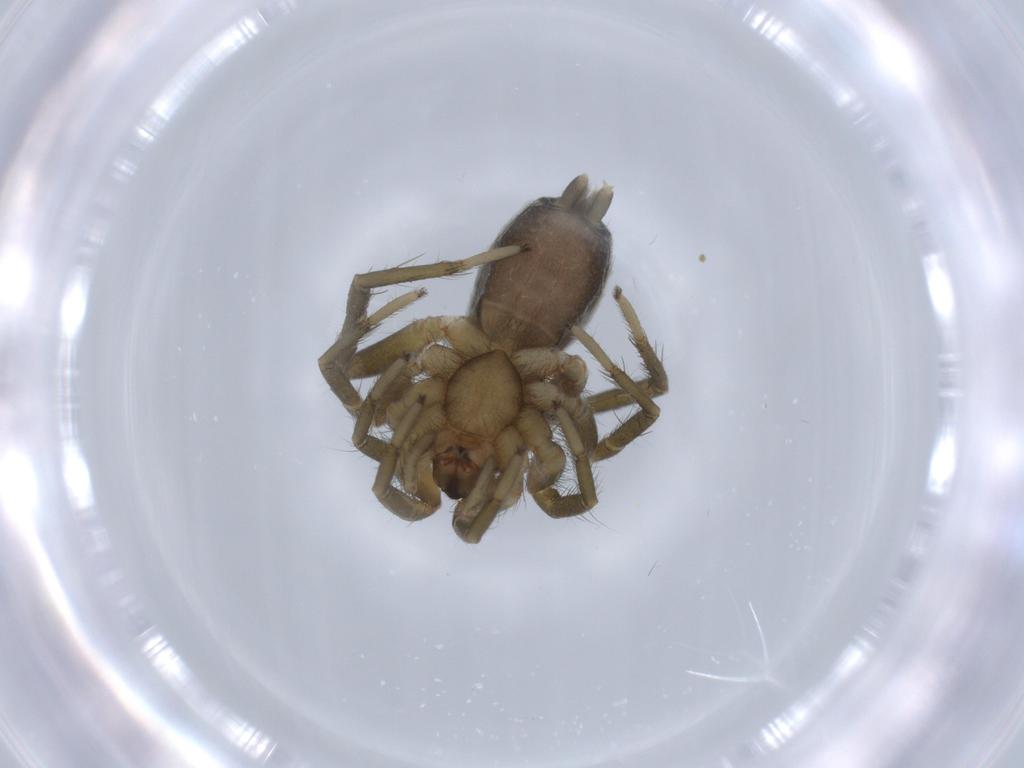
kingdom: Animalia
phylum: Arthropoda
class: Arachnida
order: Araneae
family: Gnaphosidae
